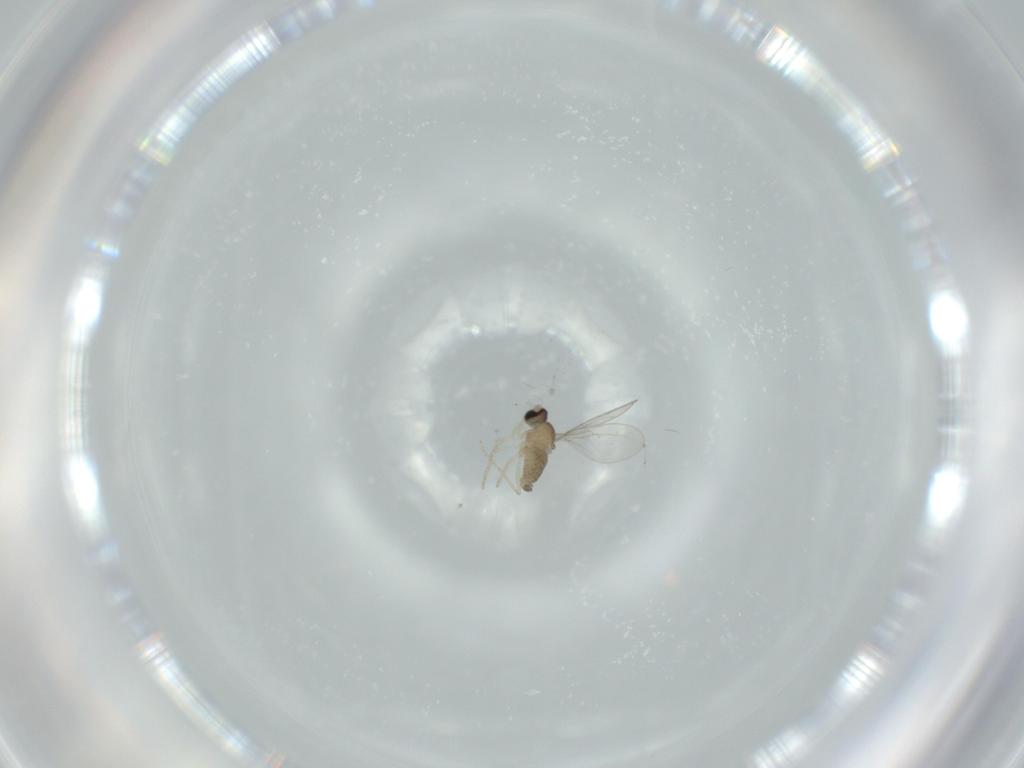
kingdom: Animalia
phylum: Arthropoda
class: Insecta
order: Diptera
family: Cecidomyiidae
